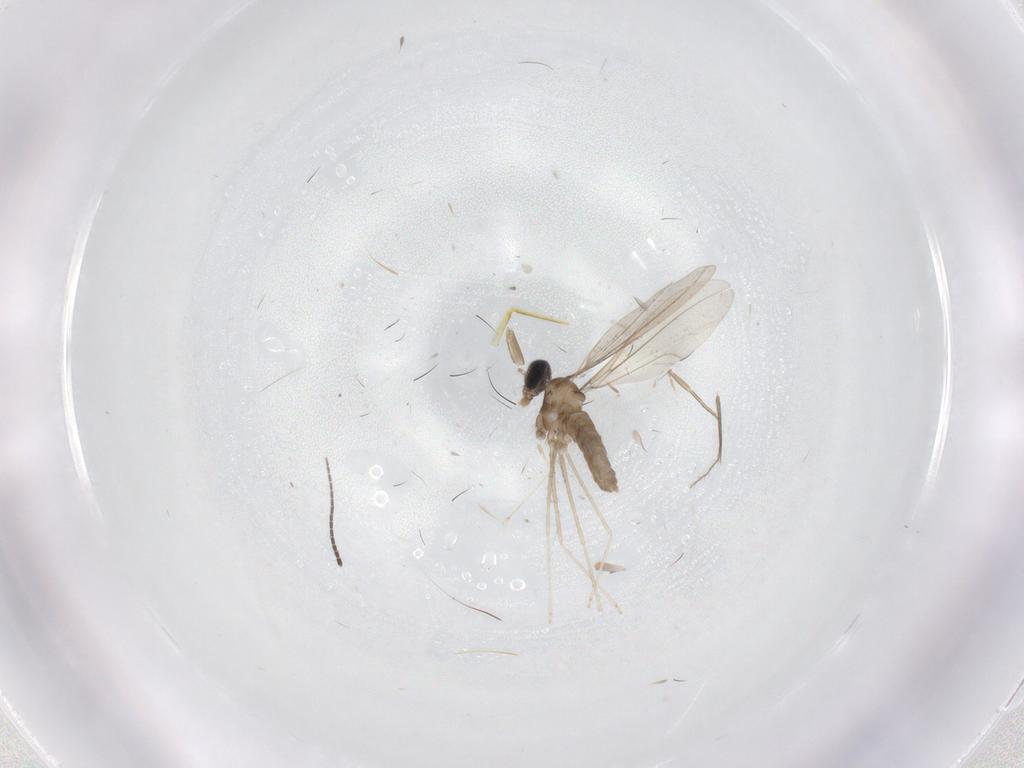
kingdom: Animalia
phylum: Arthropoda
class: Insecta
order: Diptera
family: Cecidomyiidae
